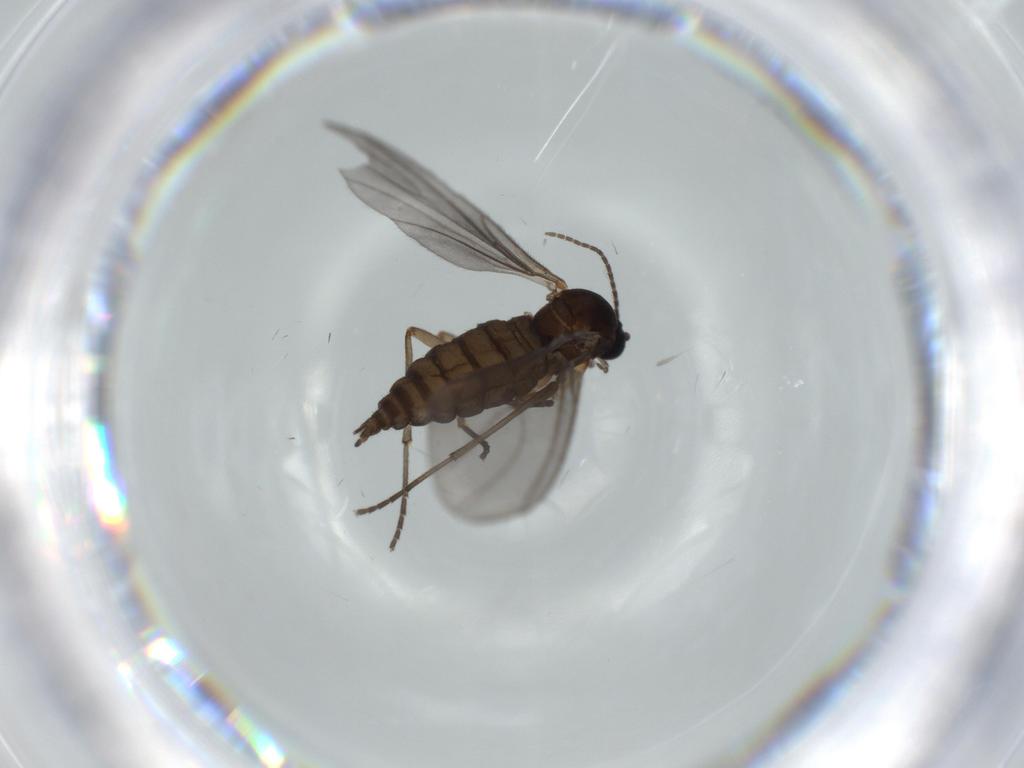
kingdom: Animalia
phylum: Arthropoda
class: Insecta
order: Diptera
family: Sciaridae
